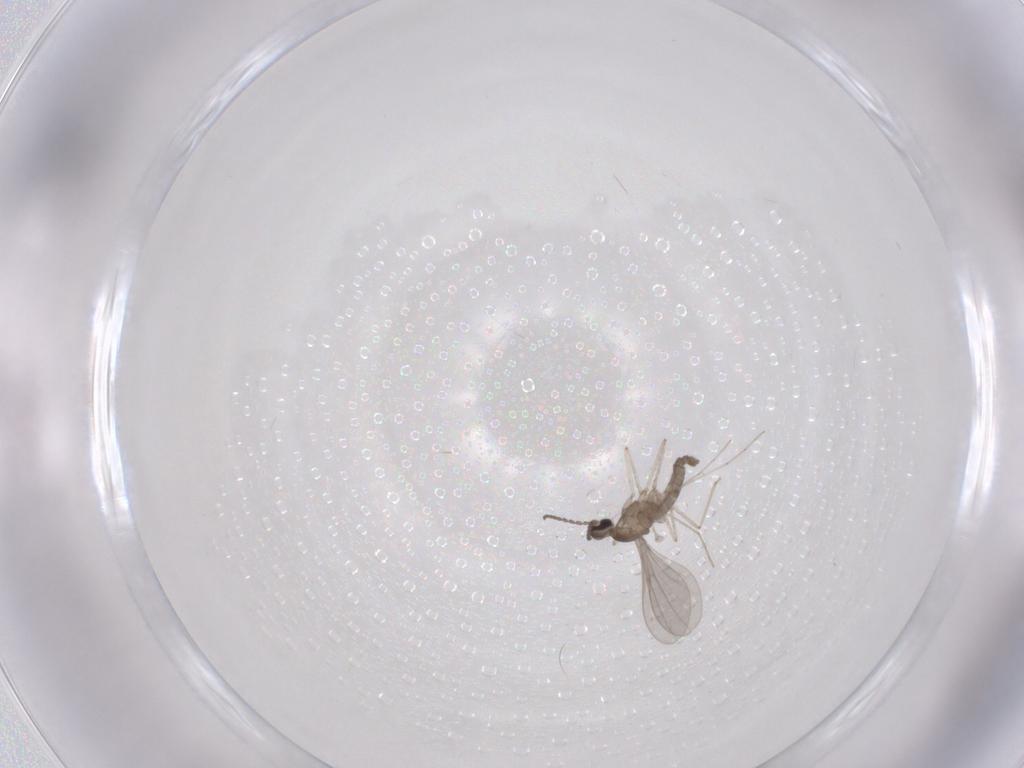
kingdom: Animalia
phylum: Arthropoda
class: Insecta
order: Diptera
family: Cecidomyiidae
